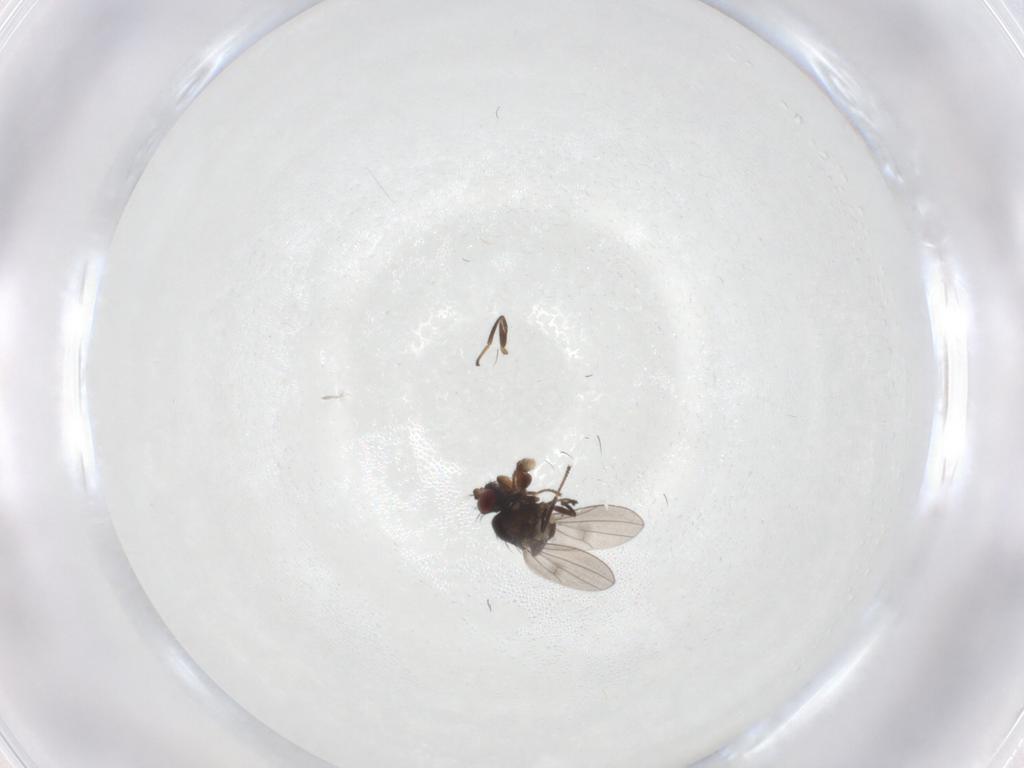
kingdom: Animalia
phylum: Arthropoda
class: Insecta
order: Diptera
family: Ephydridae
